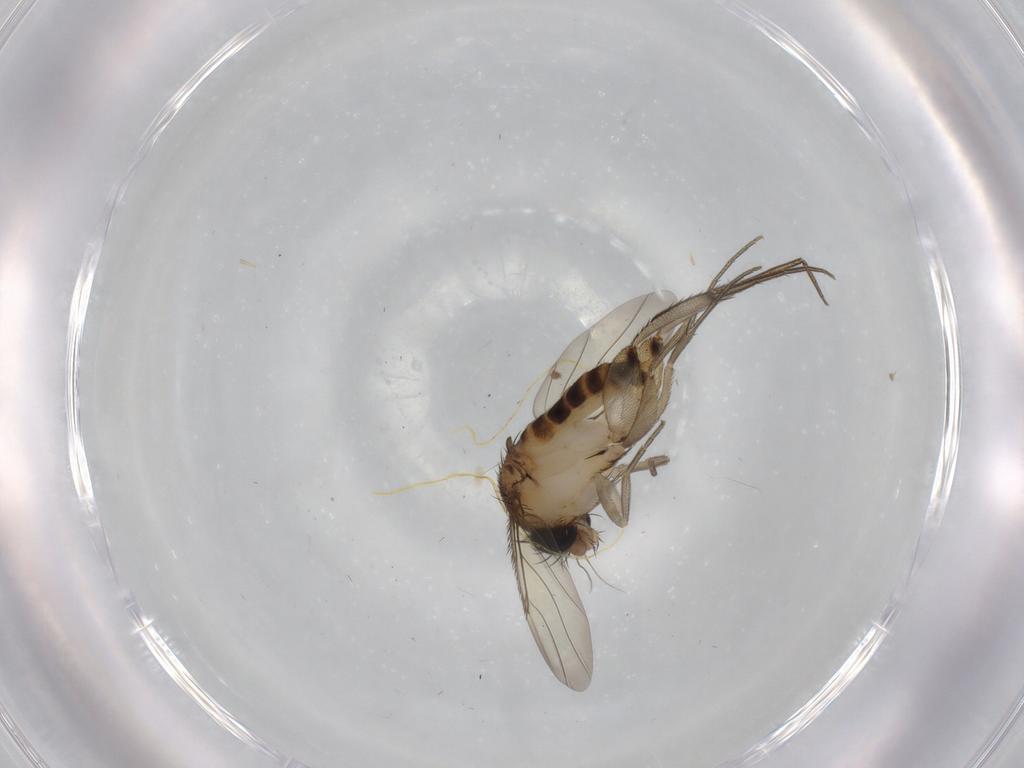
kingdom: Animalia
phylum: Arthropoda
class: Insecta
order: Diptera
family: Phoridae
